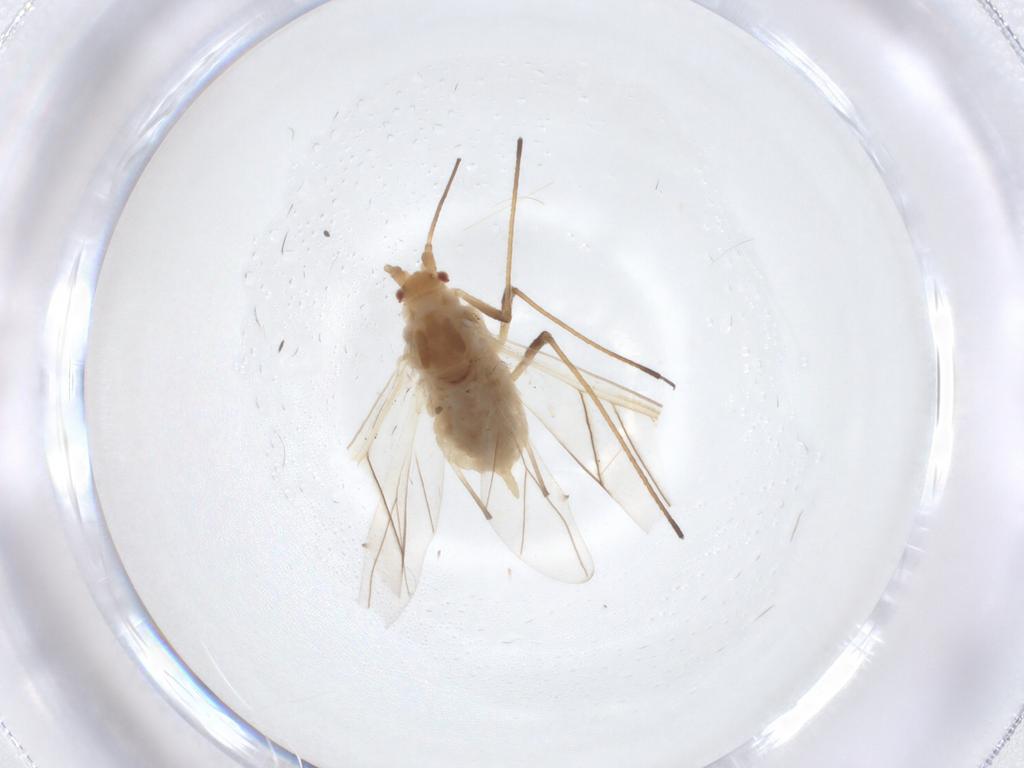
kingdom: Animalia
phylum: Arthropoda
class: Insecta
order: Hemiptera
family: Aphididae
